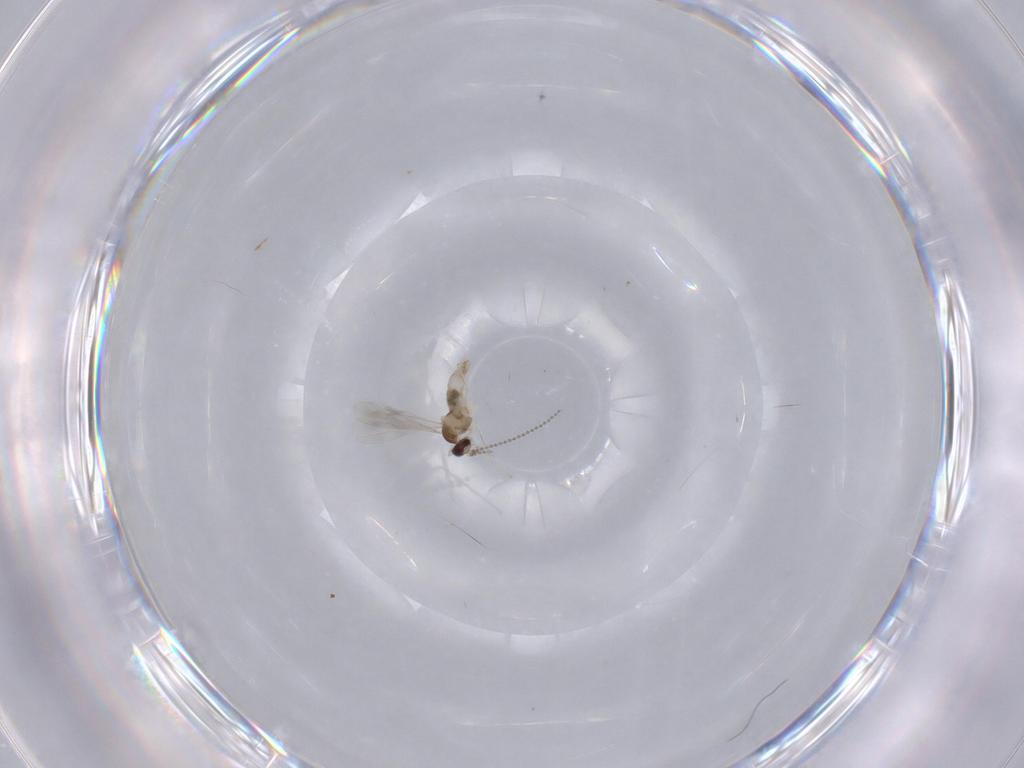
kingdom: Animalia
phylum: Arthropoda
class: Insecta
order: Diptera
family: Cecidomyiidae
